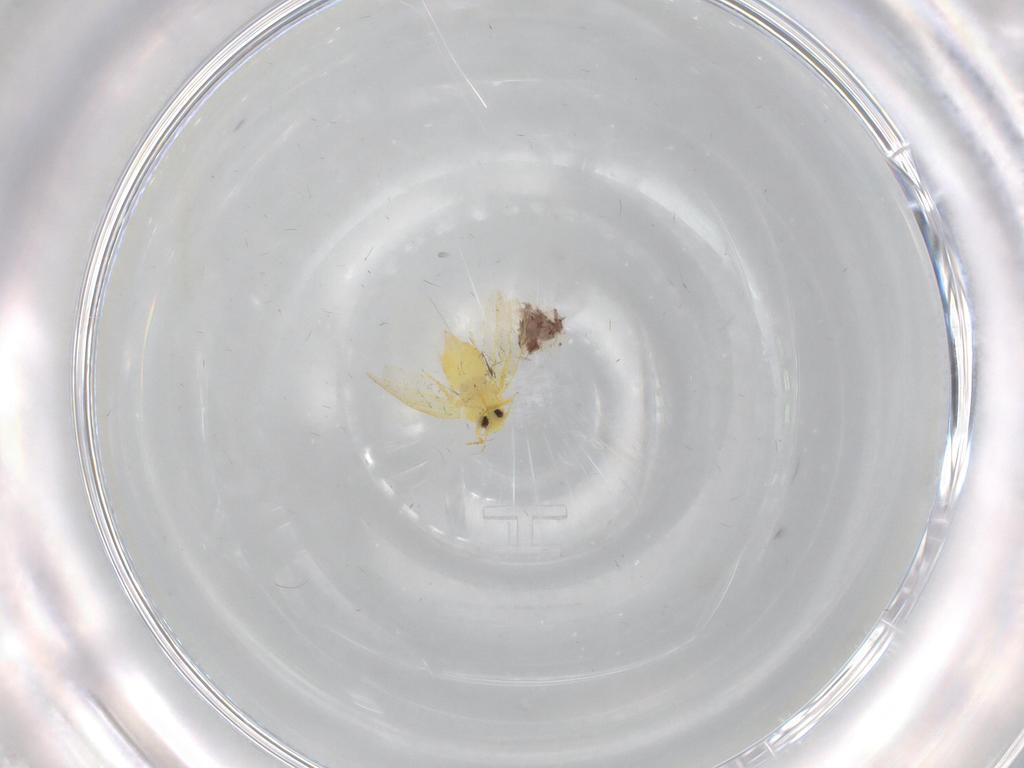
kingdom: Animalia
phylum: Arthropoda
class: Insecta
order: Hemiptera
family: Aleyrodidae
